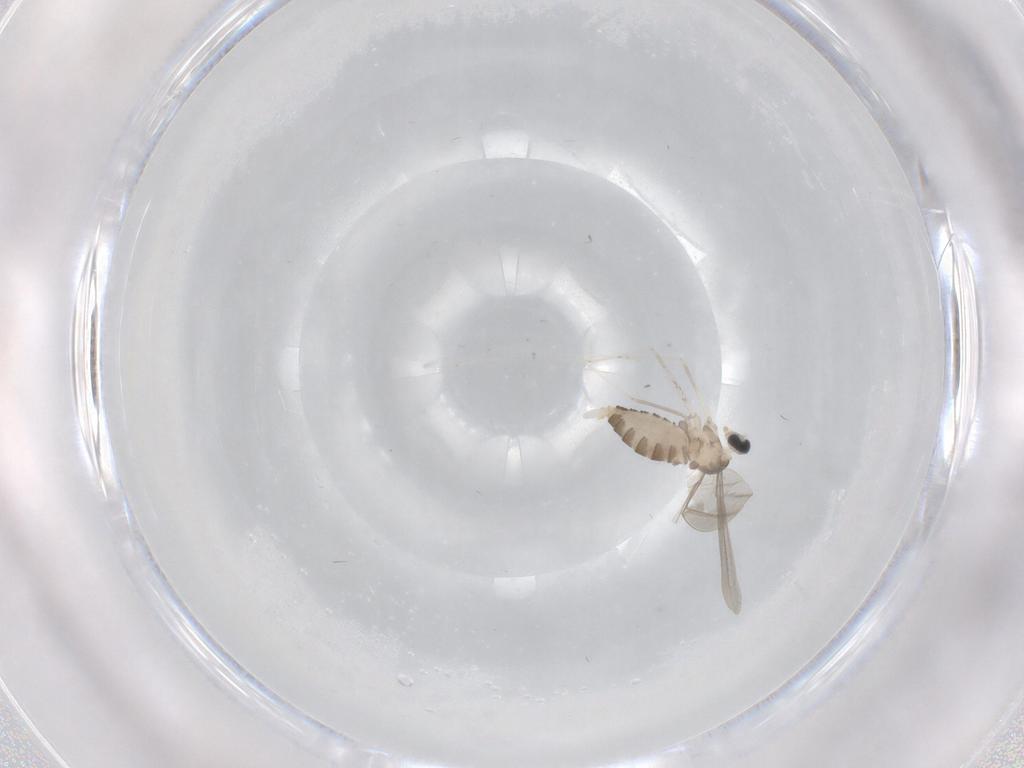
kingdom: Animalia
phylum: Arthropoda
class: Insecta
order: Diptera
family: Cecidomyiidae
